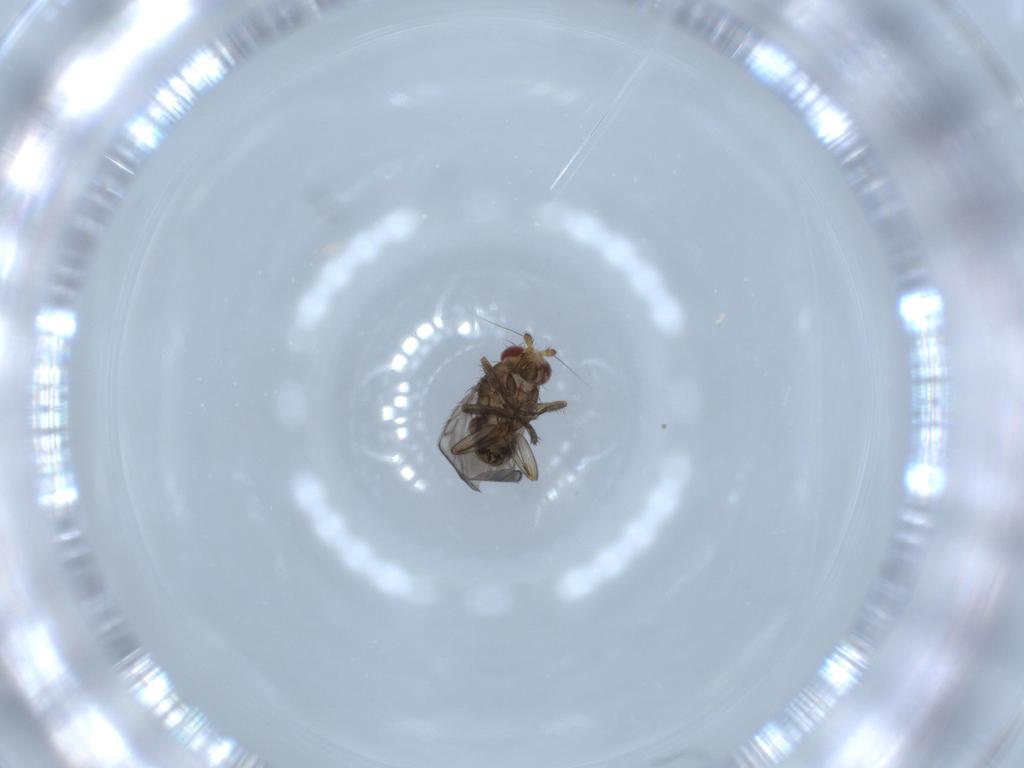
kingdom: Animalia
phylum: Arthropoda
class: Insecta
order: Diptera
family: Sphaeroceridae
